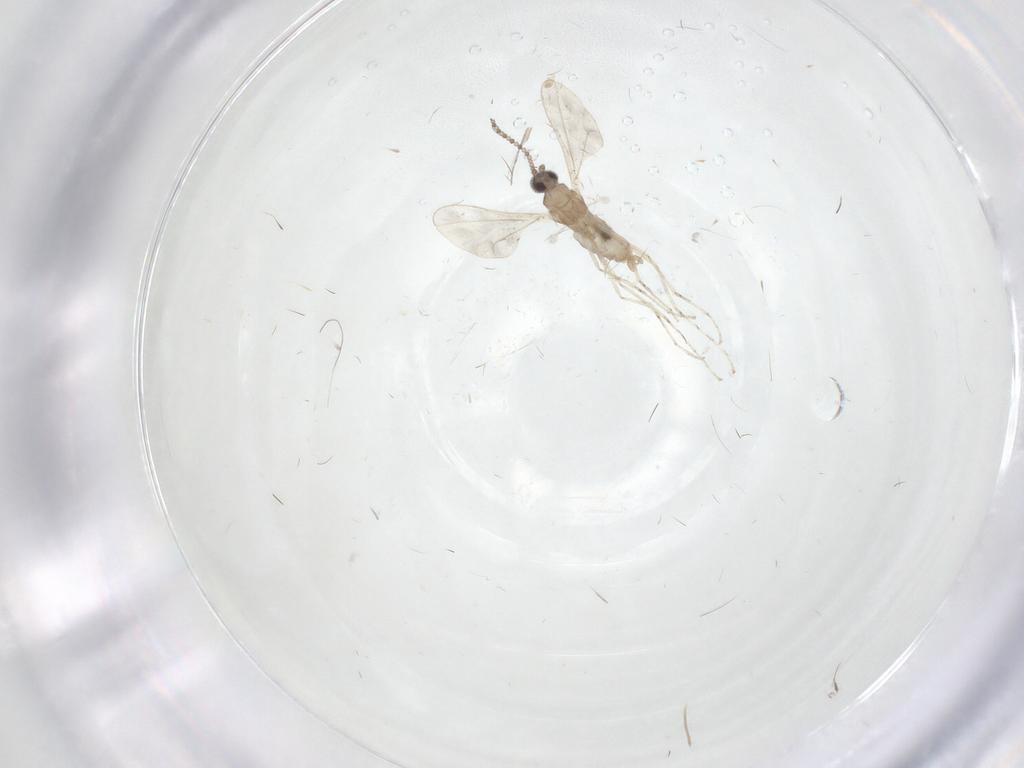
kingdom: Animalia
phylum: Arthropoda
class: Insecta
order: Diptera
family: Cecidomyiidae
